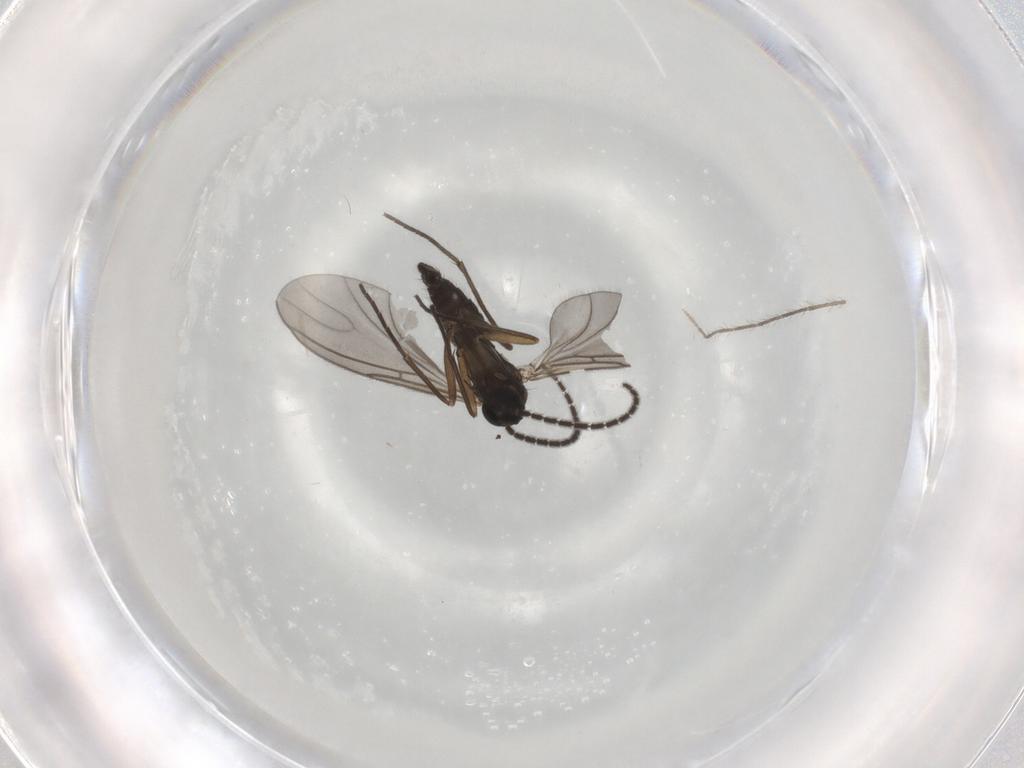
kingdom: Animalia
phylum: Arthropoda
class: Insecta
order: Diptera
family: Sciaridae
